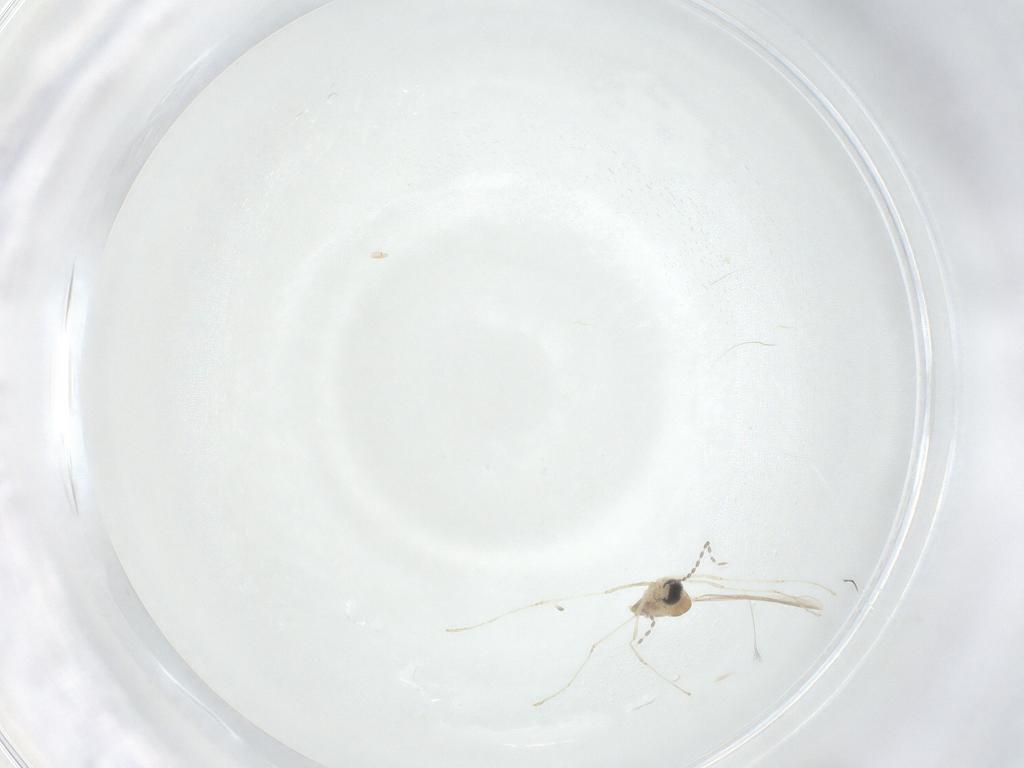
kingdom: Animalia
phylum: Arthropoda
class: Insecta
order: Diptera
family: Cecidomyiidae
